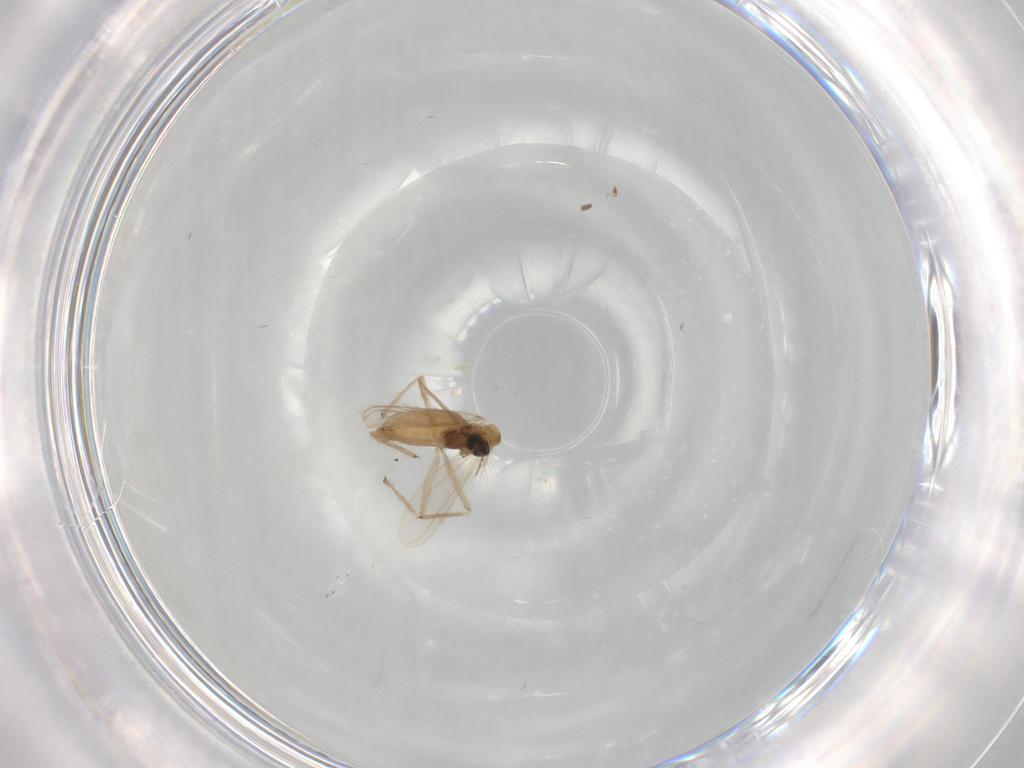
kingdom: Animalia
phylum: Arthropoda
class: Insecta
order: Diptera
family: Chironomidae
